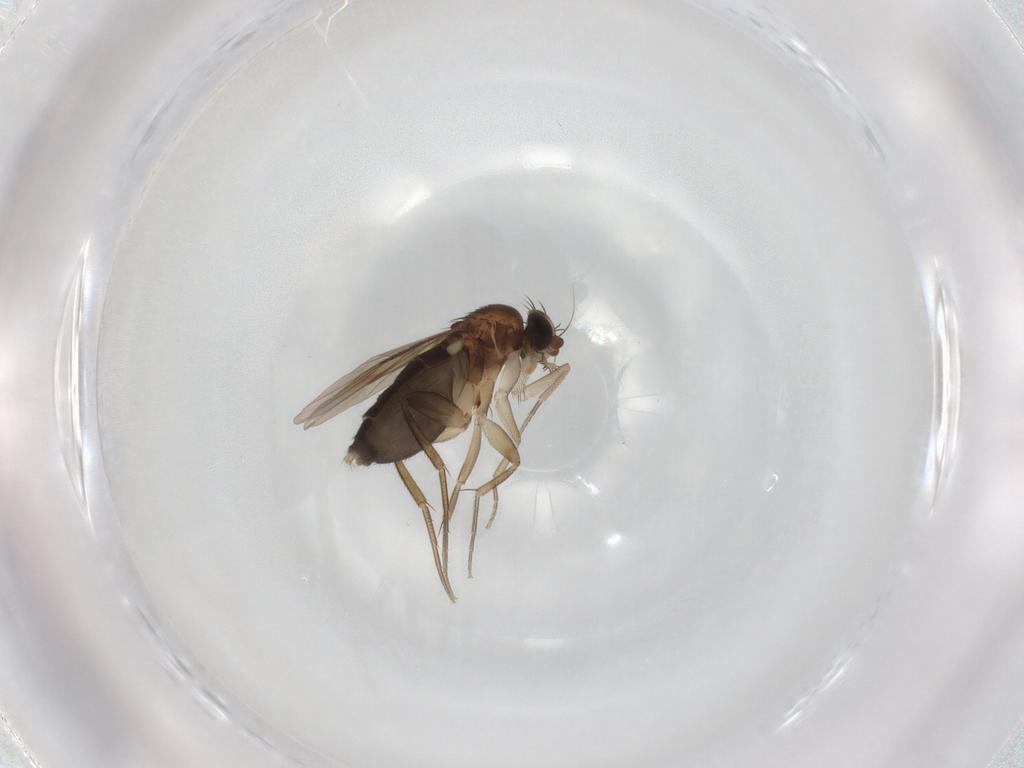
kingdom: Animalia
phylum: Arthropoda
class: Insecta
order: Diptera
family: Phoridae
